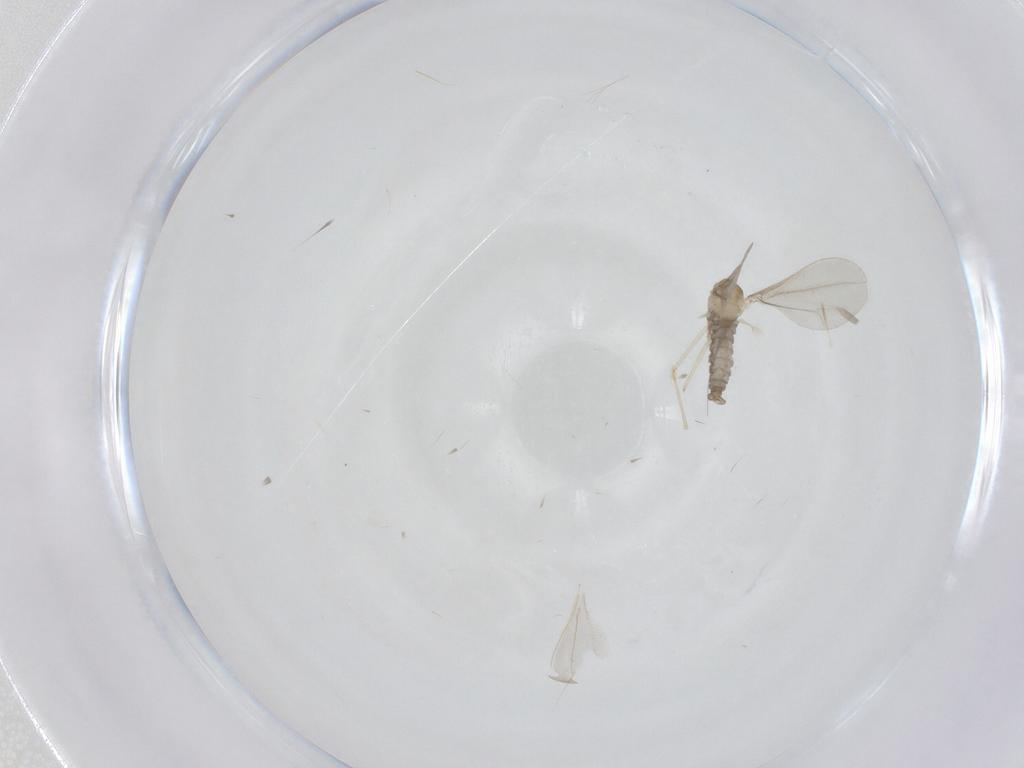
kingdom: Animalia
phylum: Arthropoda
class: Insecta
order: Diptera
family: Cecidomyiidae
